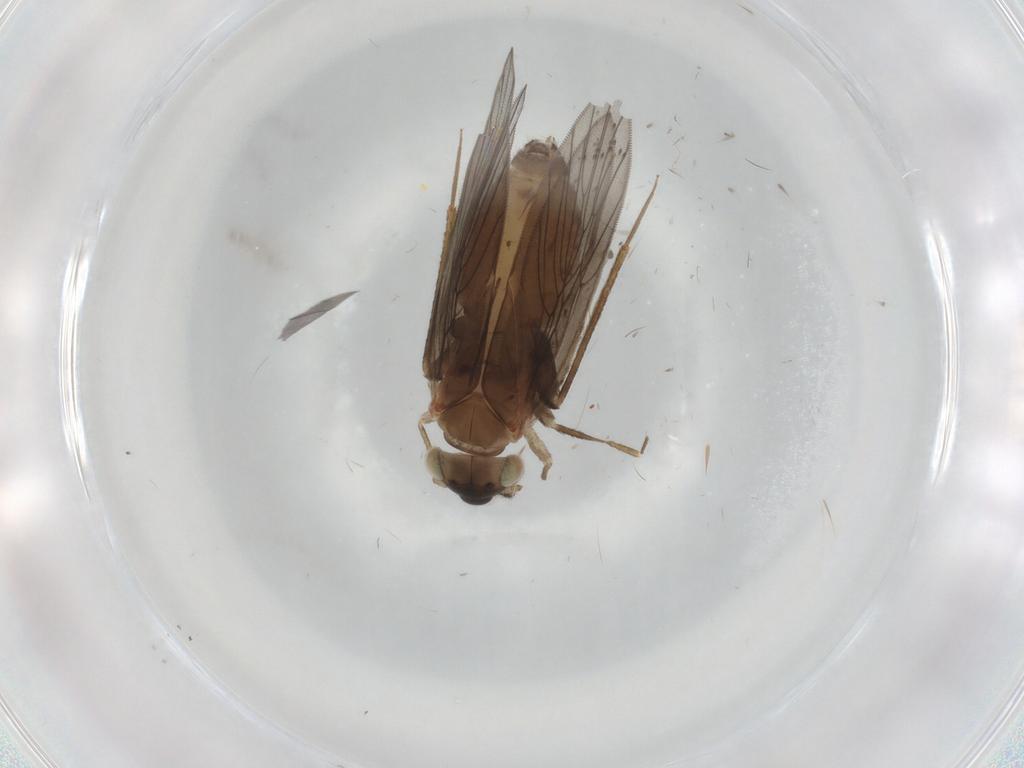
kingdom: Animalia
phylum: Arthropoda
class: Insecta
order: Psocodea
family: Lepidopsocidae
